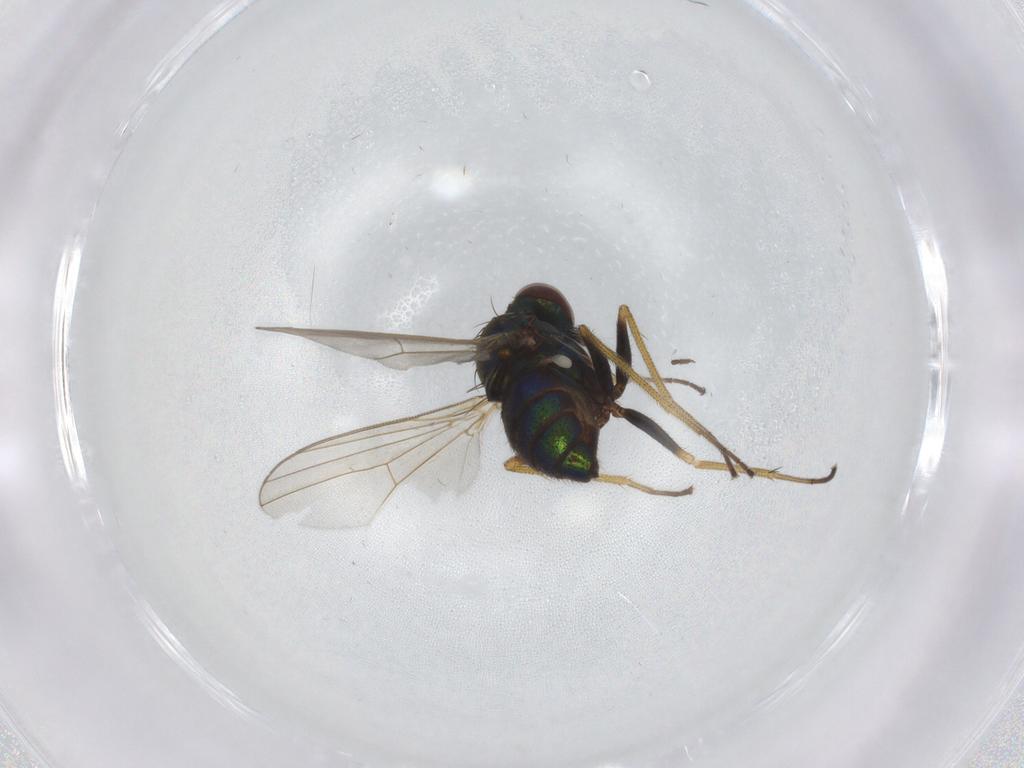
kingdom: Animalia
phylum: Arthropoda
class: Insecta
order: Diptera
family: Dolichopodidae
